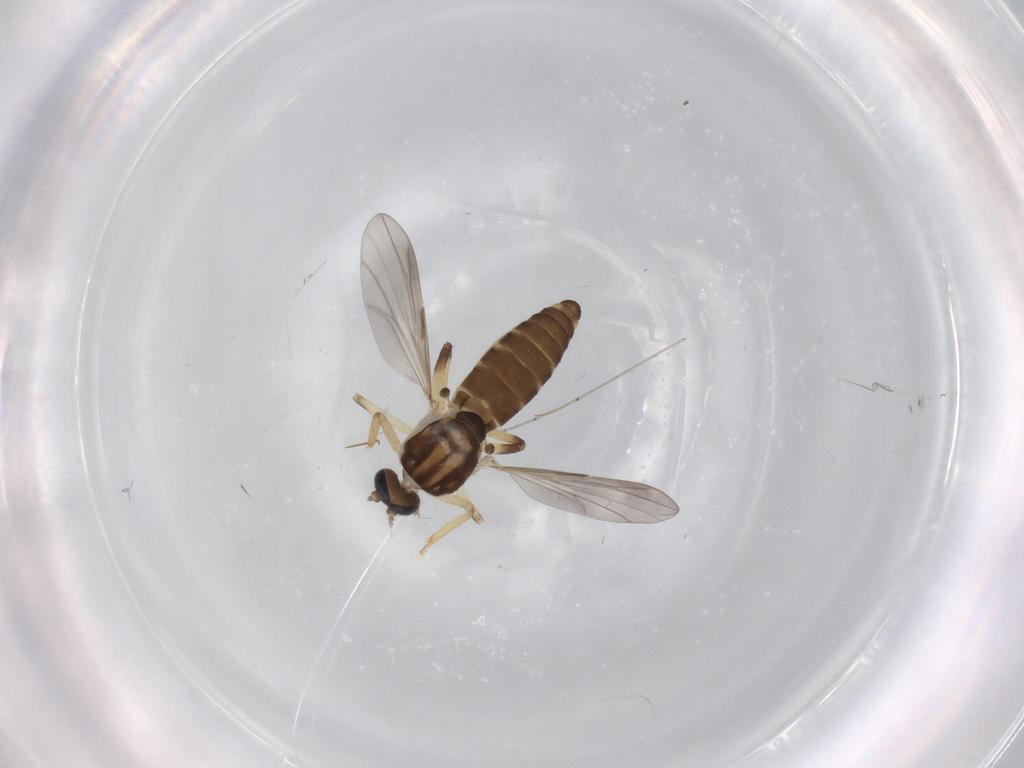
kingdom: Animalia
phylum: Arthropoda
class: Insecta
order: Diptera
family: Cecidomyiidae
